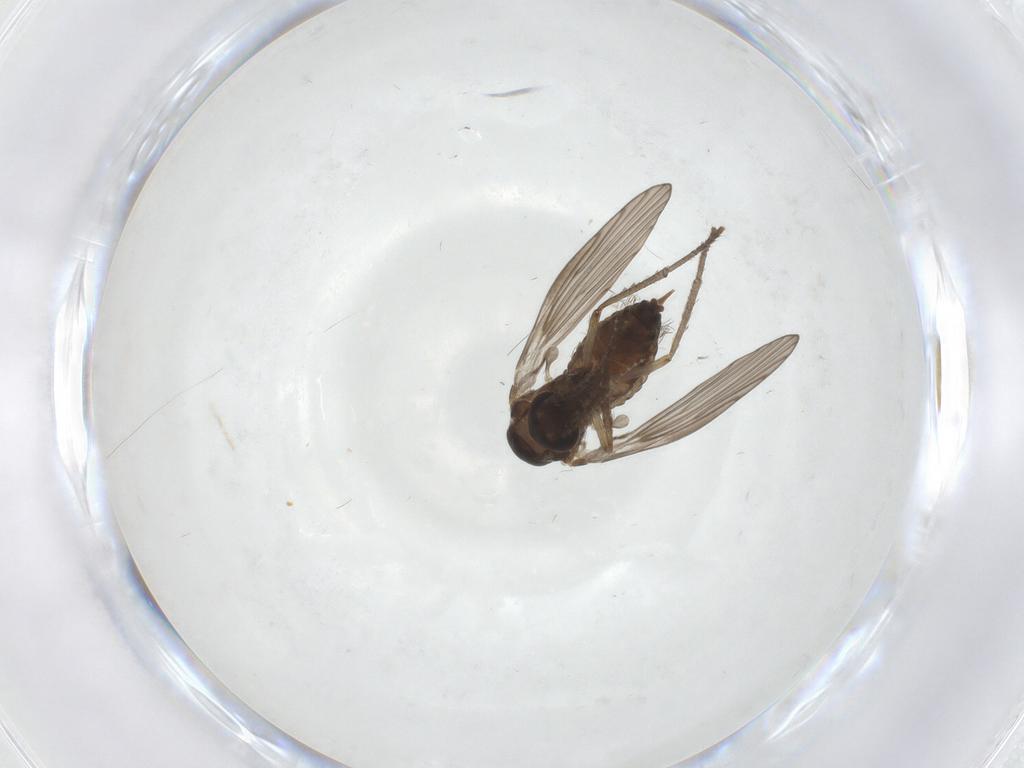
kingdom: Animalia
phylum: Arthropoda
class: Insecta
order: Diptera
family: Psychodidae
